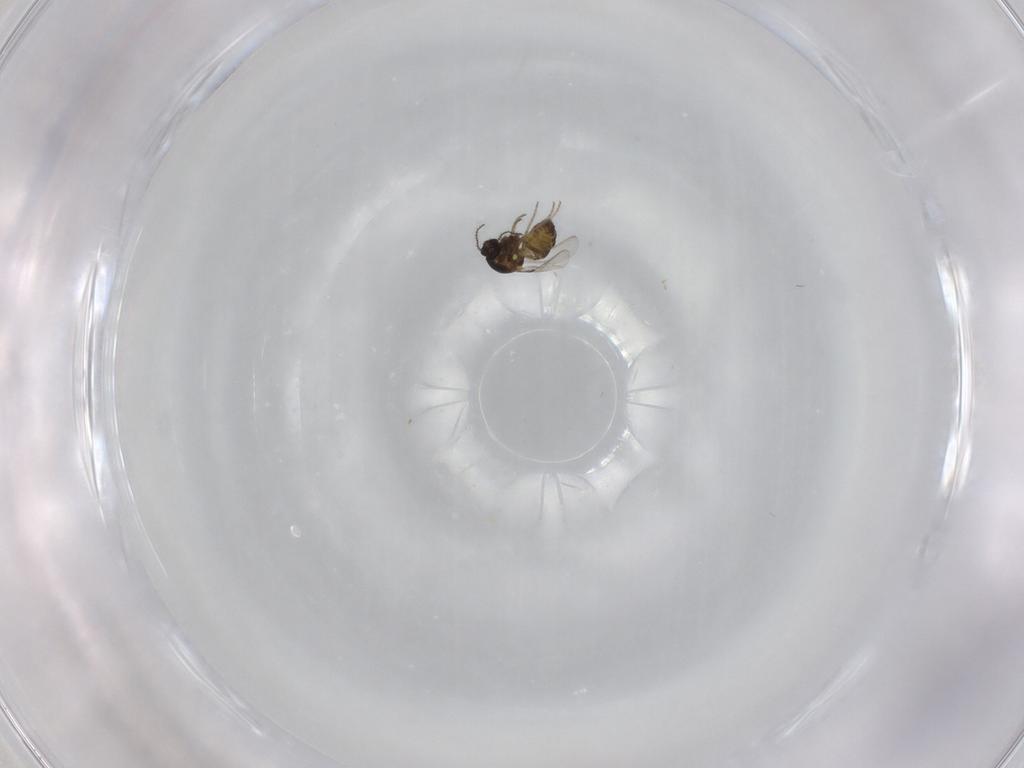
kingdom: Animalia
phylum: Arthropoda
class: Insecta
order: Diptera
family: Ceratopogonidae
